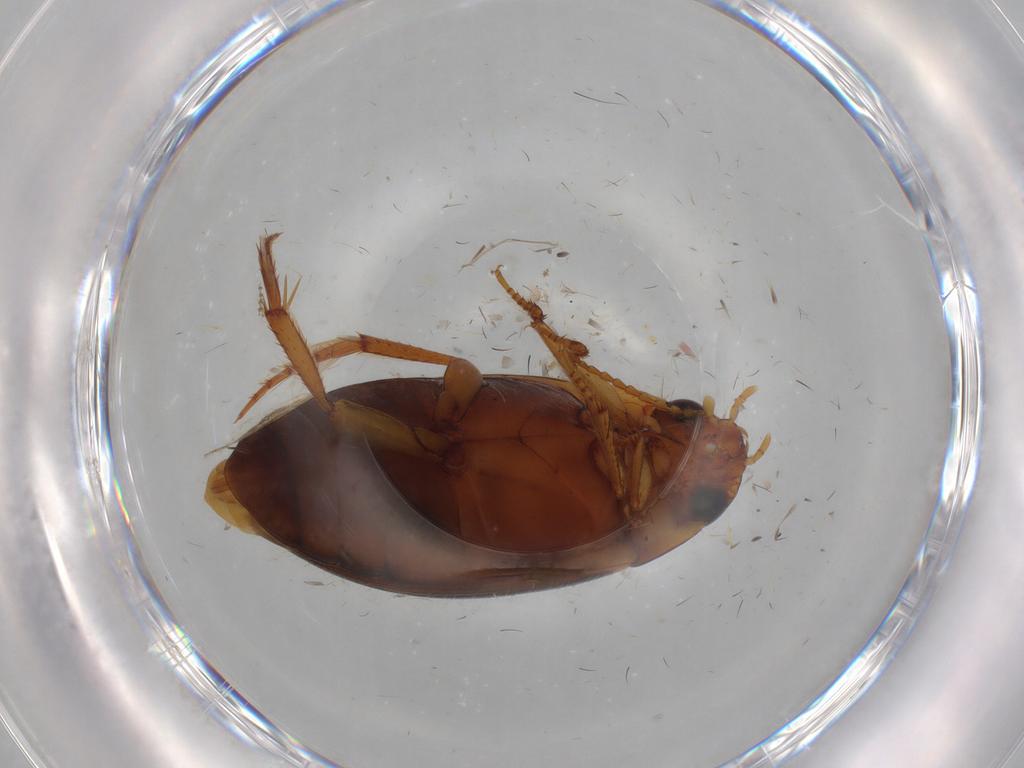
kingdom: Animalia
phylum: Arthropoda
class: Insecta
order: Coleoptera
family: Dytiscidae
